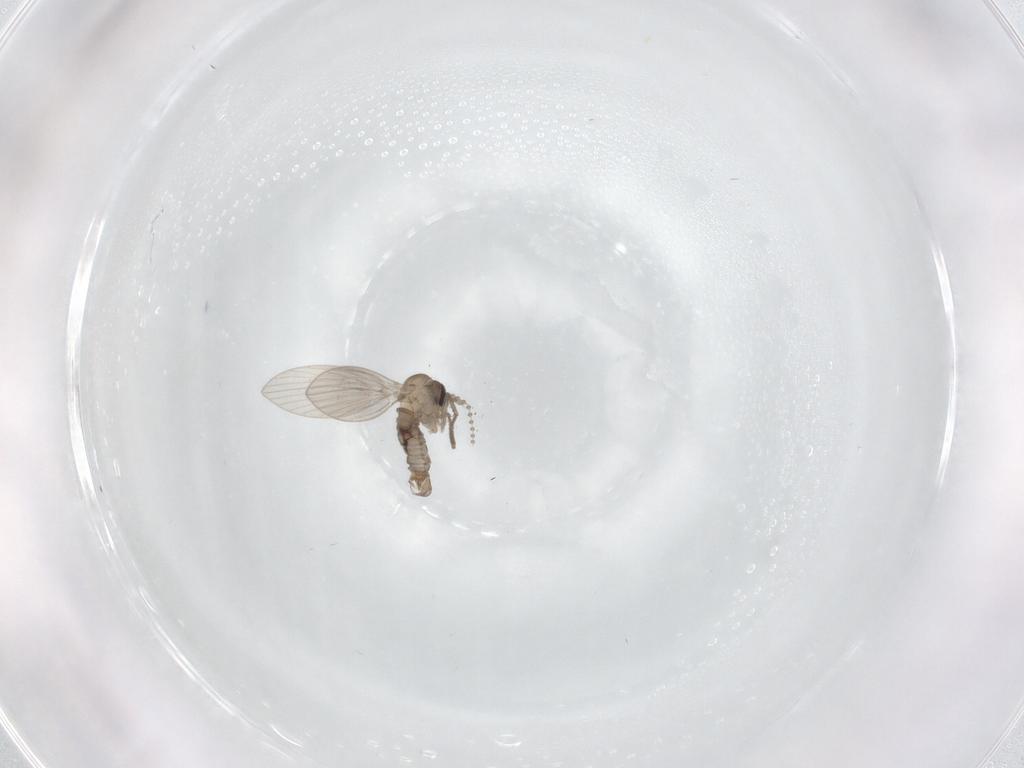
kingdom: Animalia
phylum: Arthropoda
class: Insecta
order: Diptera
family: Psychodidae
